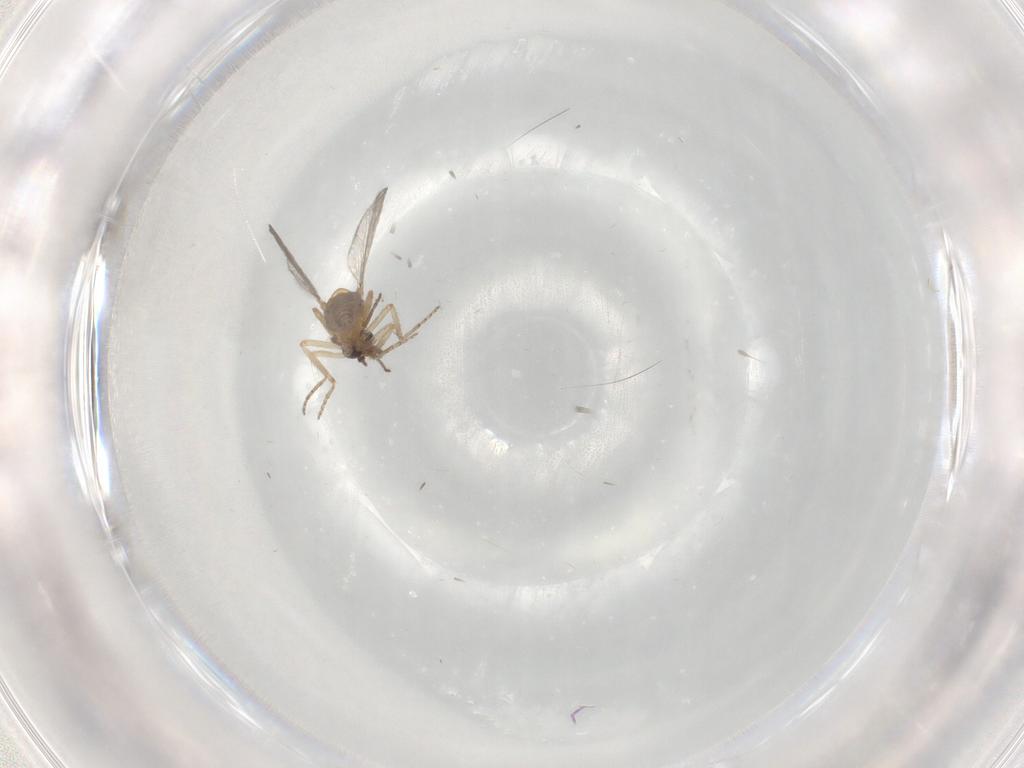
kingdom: Animalia
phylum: Arthropoda
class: Insecta
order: Diptera
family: Ceratopogonidae
